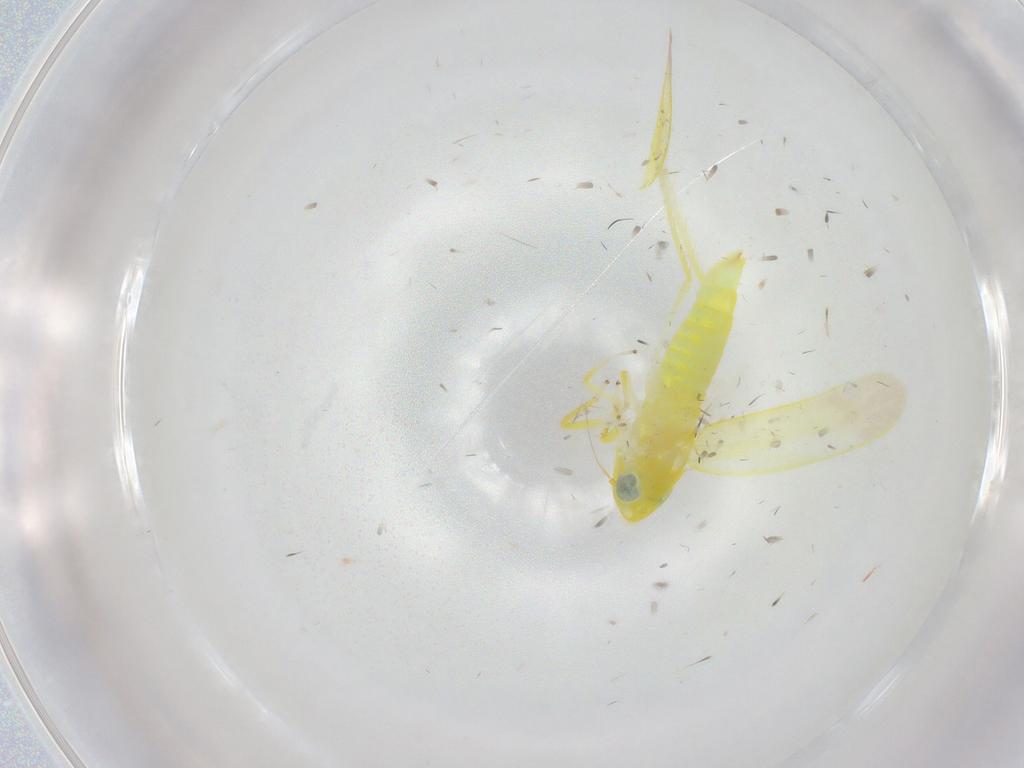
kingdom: Animalia
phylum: Arthropoda
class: Insecta
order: Hemiptera
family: Cicadellidae
